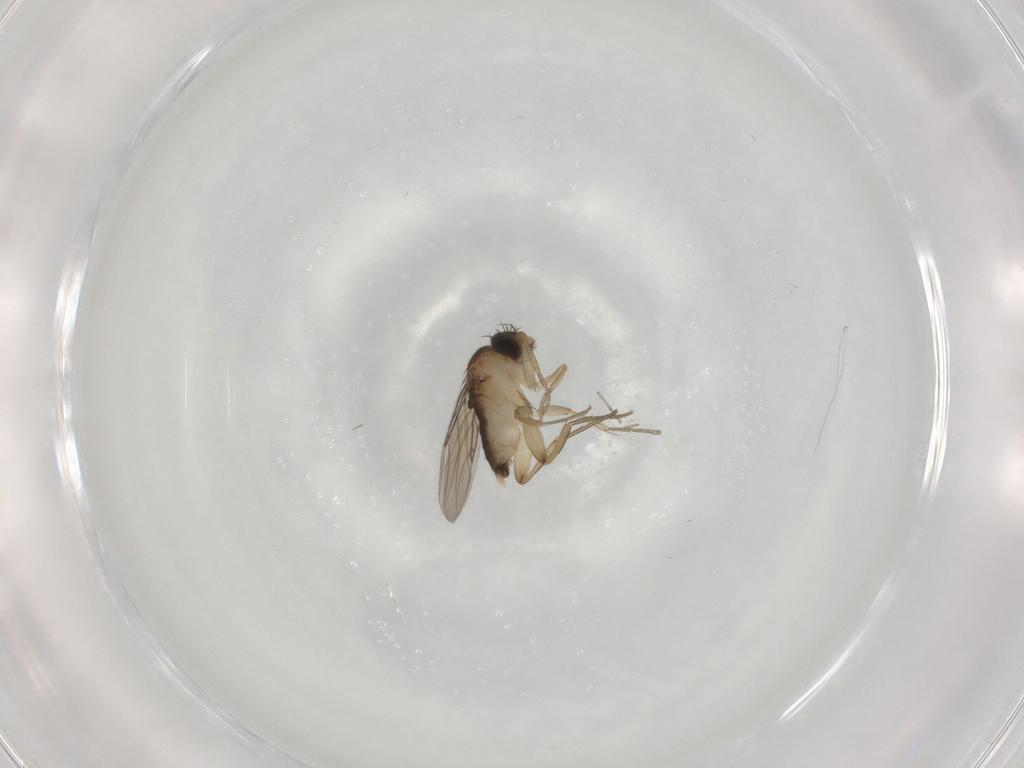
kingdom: Animalia
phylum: Arthropoda
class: Insecta
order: Diptera
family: Phoridae
